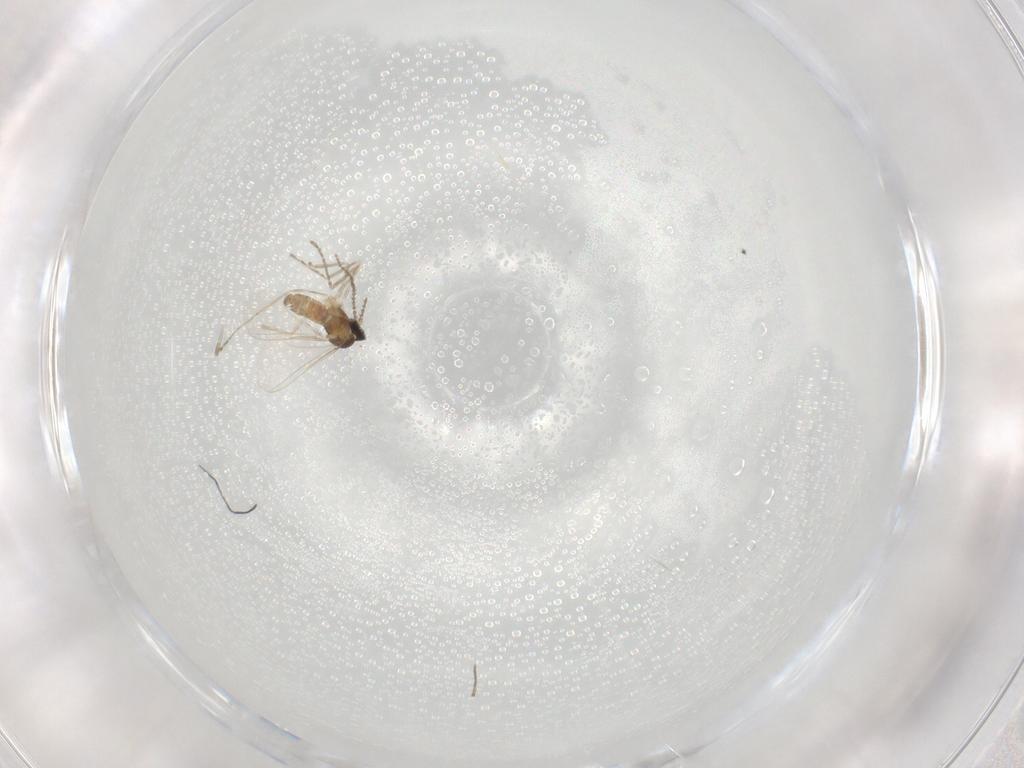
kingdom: Animalia
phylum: Arthropoda
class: Insecta
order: Diptera
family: Cecidomyiidae
